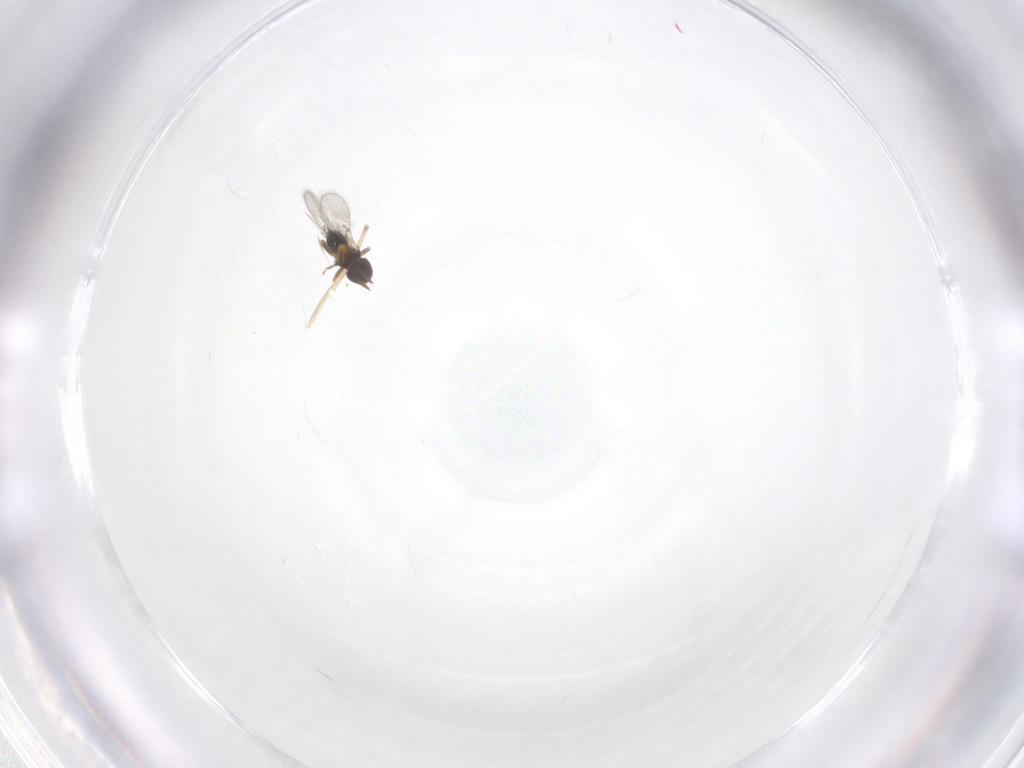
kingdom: Animalia
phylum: Arthropoda
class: Insecta
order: Hymenoptera
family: Trichogrammatidae
